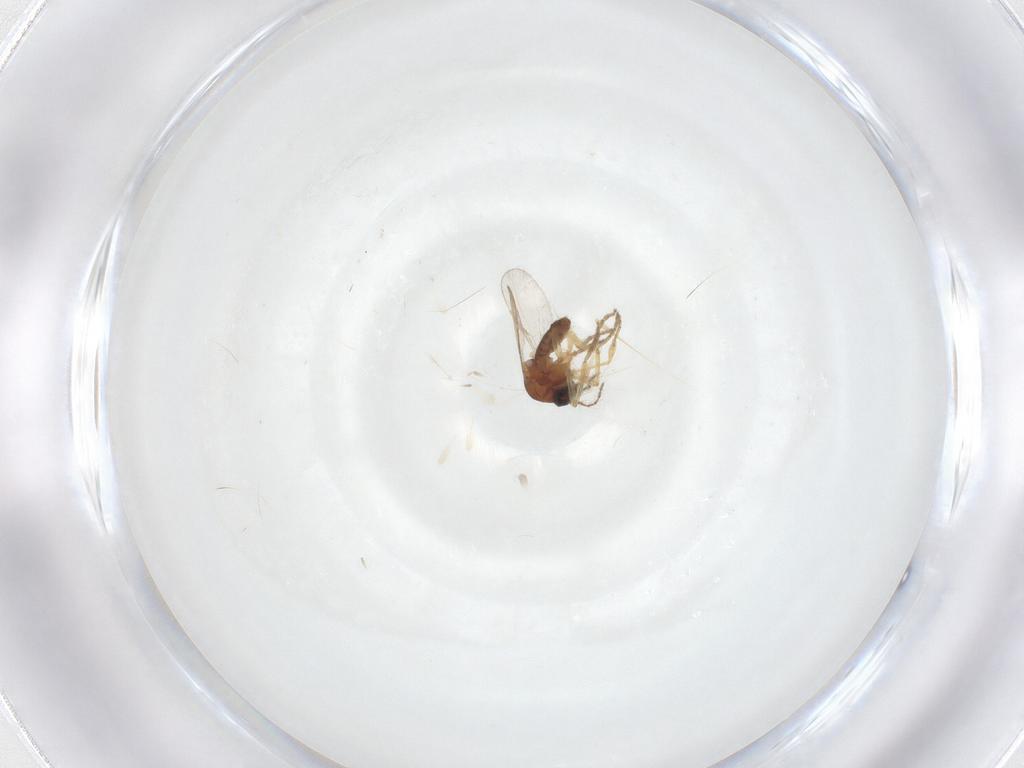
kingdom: Animalia
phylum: Arthropoda
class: Insecta
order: Diptera
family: Ceratopogonidae
